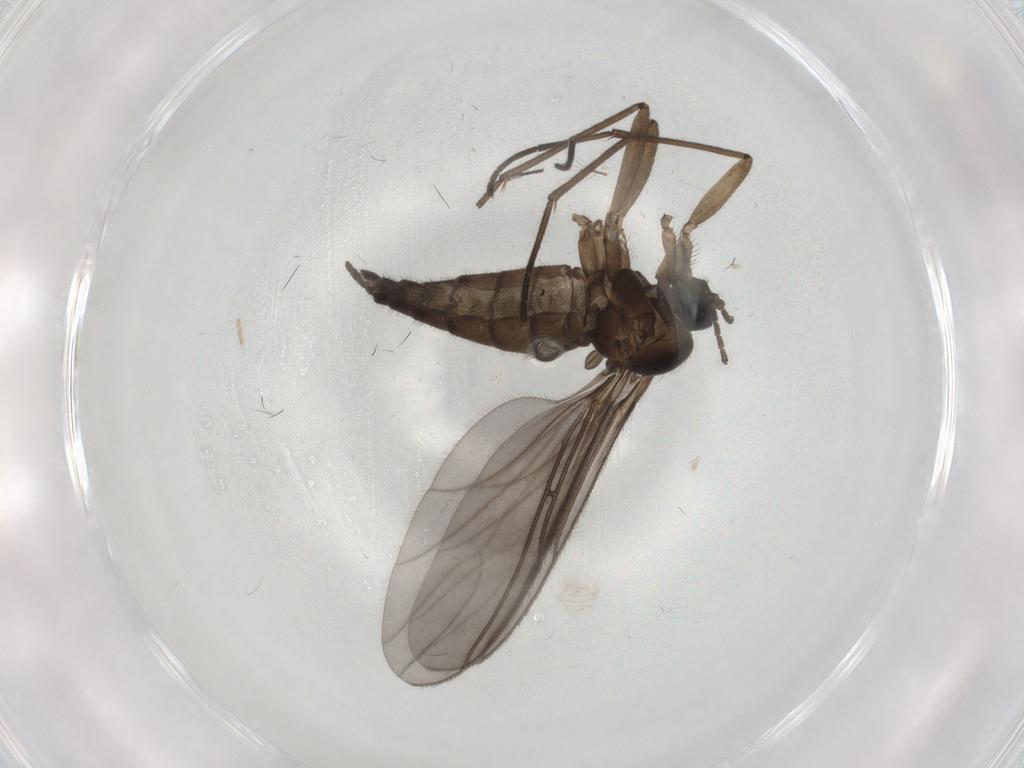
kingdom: Animalia
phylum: Arthropoda
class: Insecta
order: Diptera
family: Sciaridae
